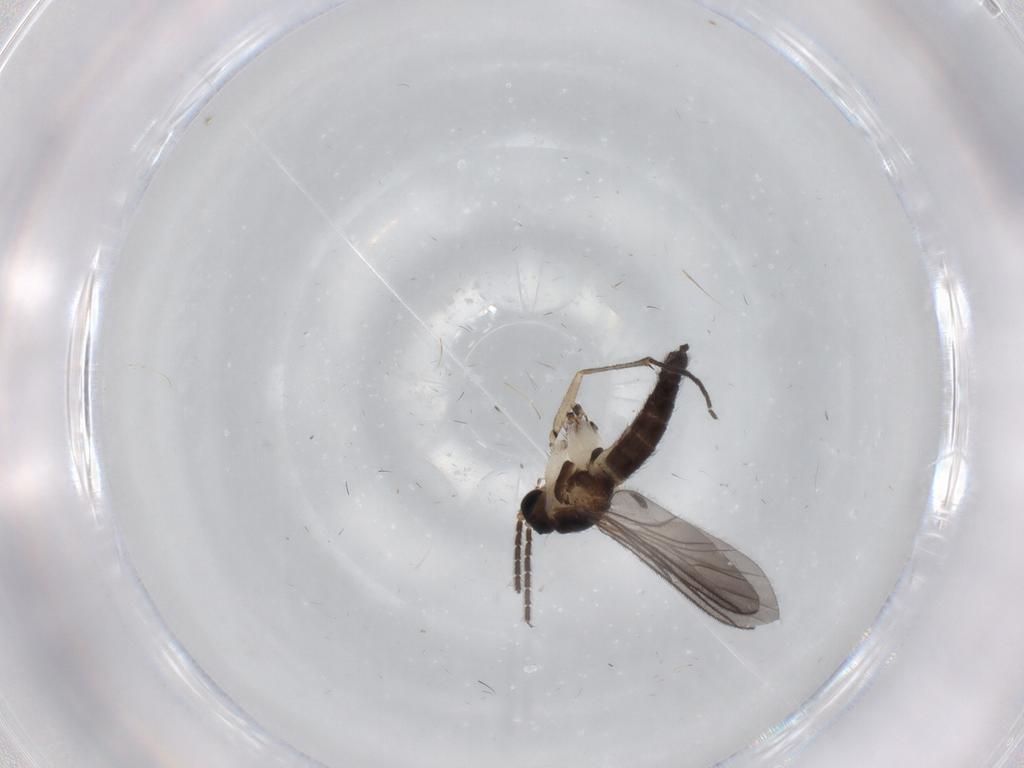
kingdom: Animalia
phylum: Arthropoda
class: Insecta
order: Diptera
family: Sciaridae
